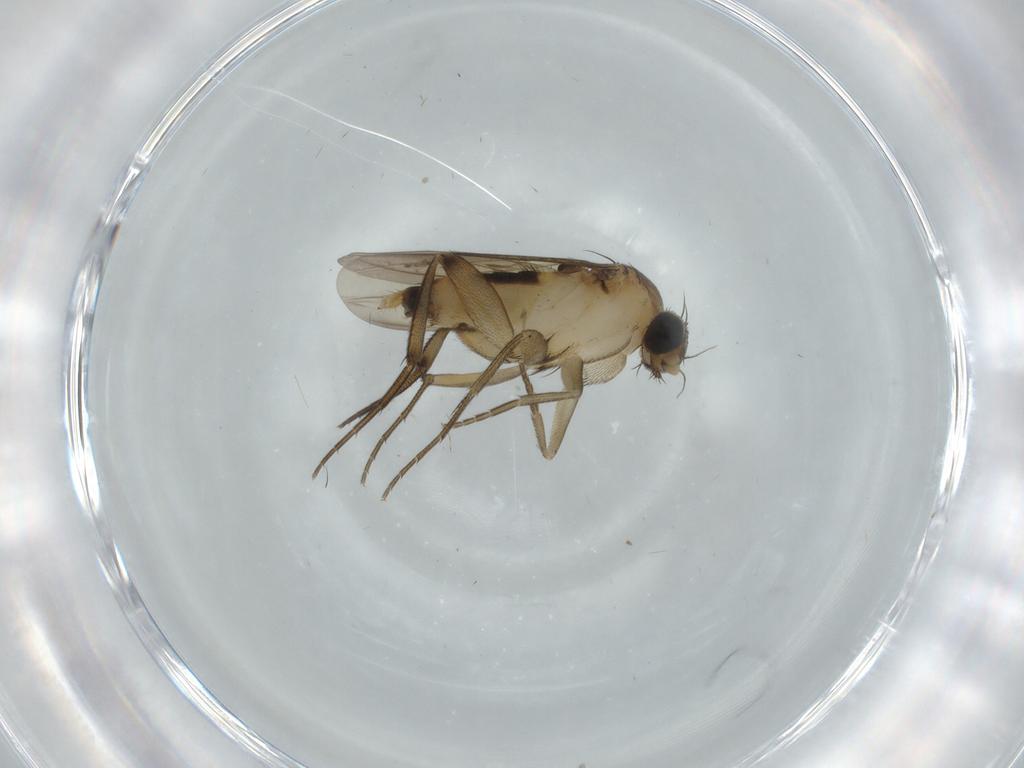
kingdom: Animalia
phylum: Arthropoda
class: Insecta
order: Diptera
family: Phoridae
